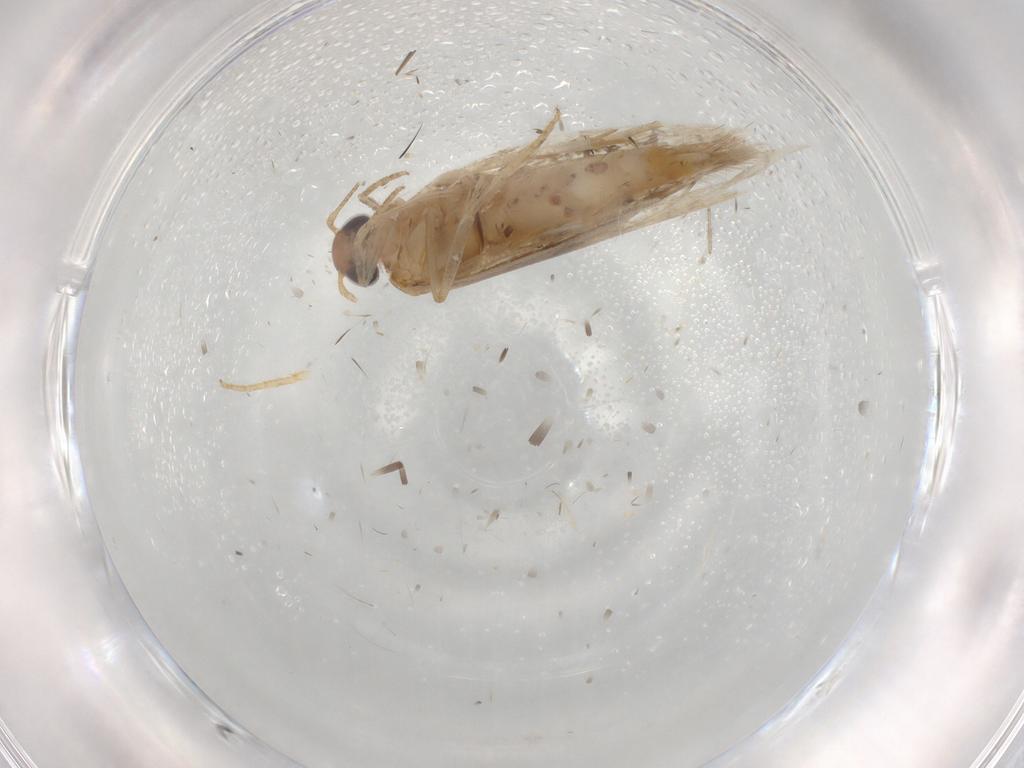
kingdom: Animalia
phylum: Arthropoda
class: Insecta
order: Lepidoptera
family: Gelechiidae
